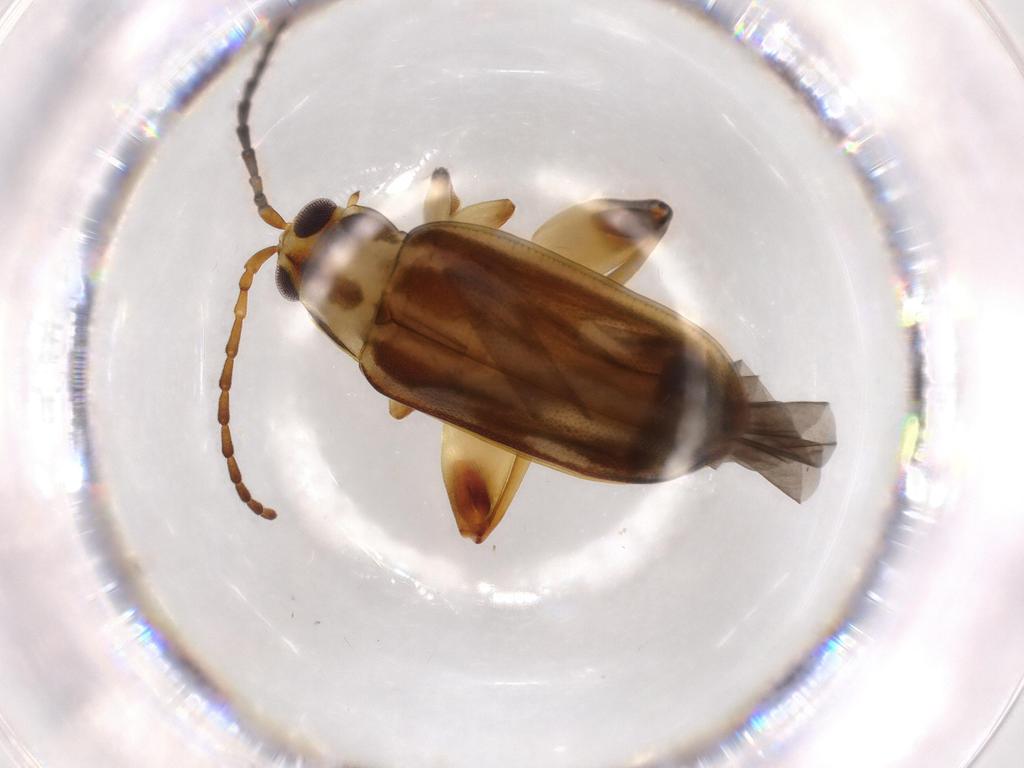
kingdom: Animalia
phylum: Arthropoda
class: Insecta
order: Coleoptera
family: Chrysomelidae
